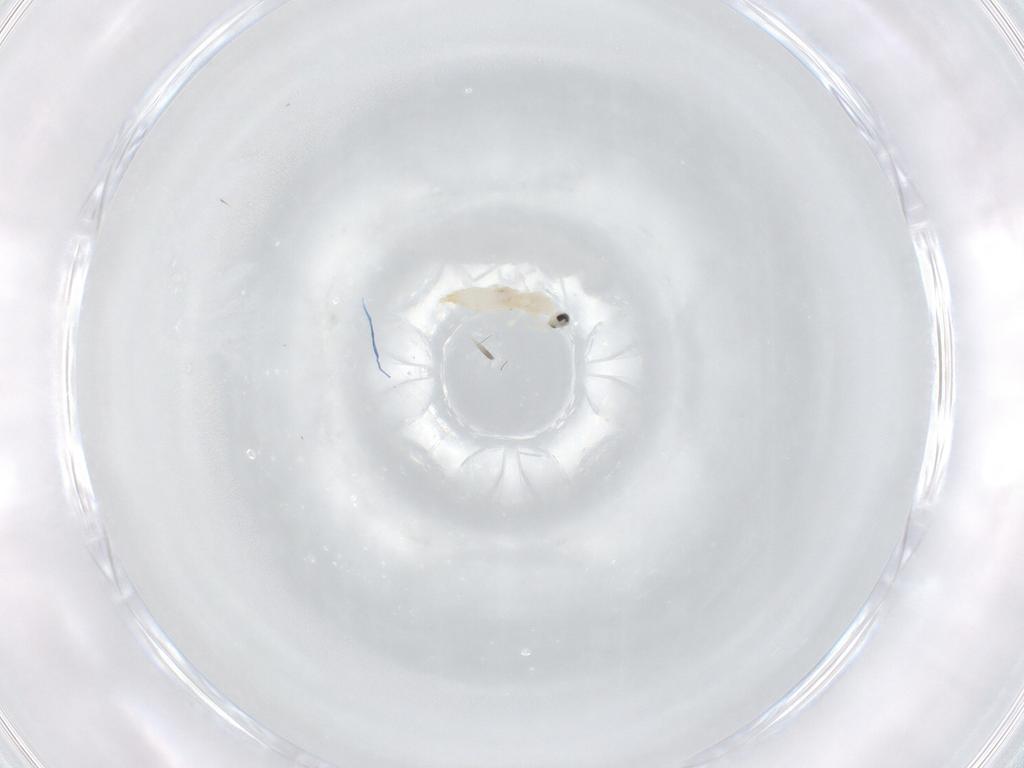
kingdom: Animalia
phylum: Arthropoda
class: Insecta
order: Diptera
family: Cecidomyiidae
